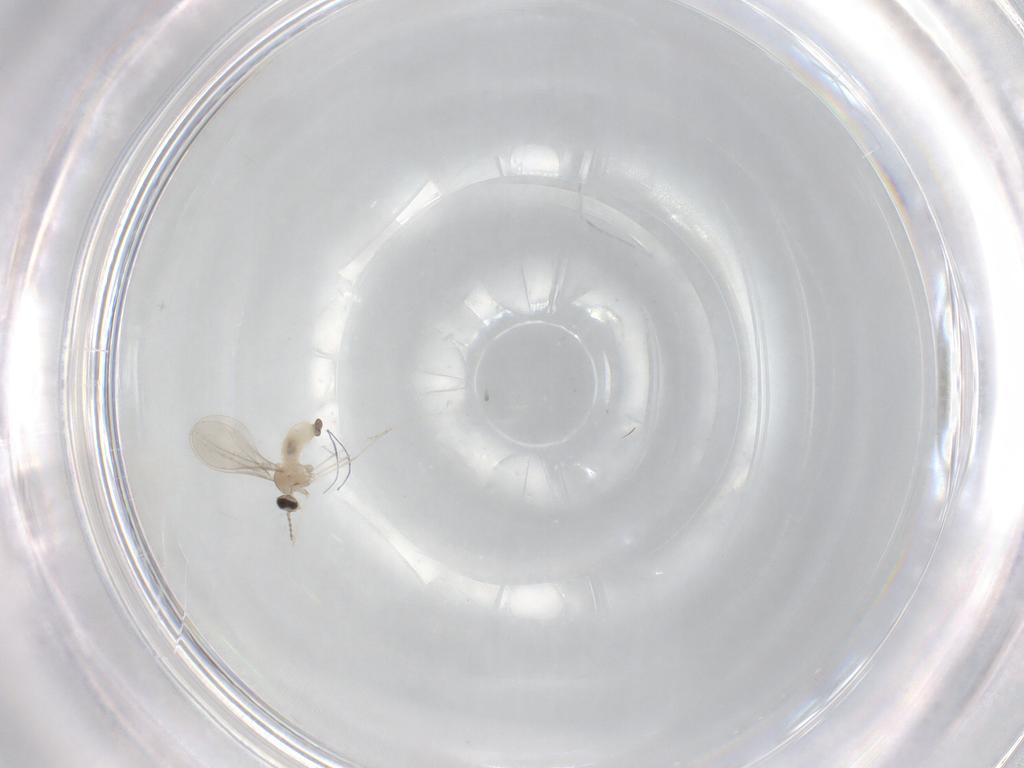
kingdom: Animalia
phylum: Arthropoda
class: Insecta
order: Diptera
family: Cecidomyiidae
